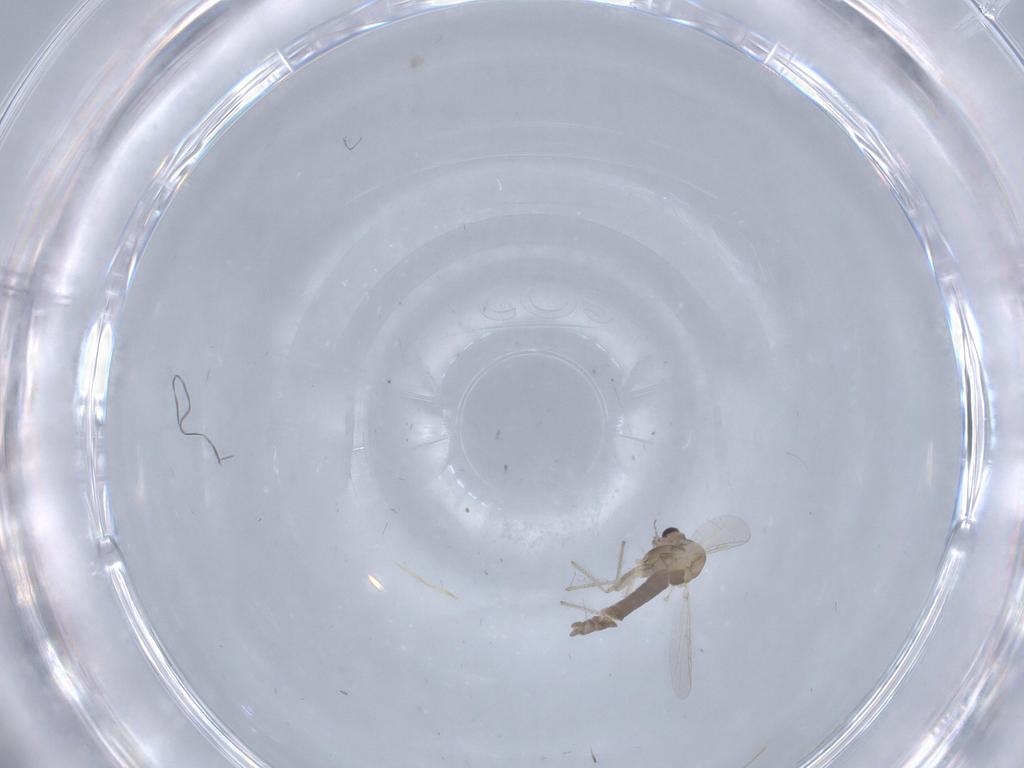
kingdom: Animalia
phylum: Arthropoda
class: Insecta
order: Diptera
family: Chironomidae
